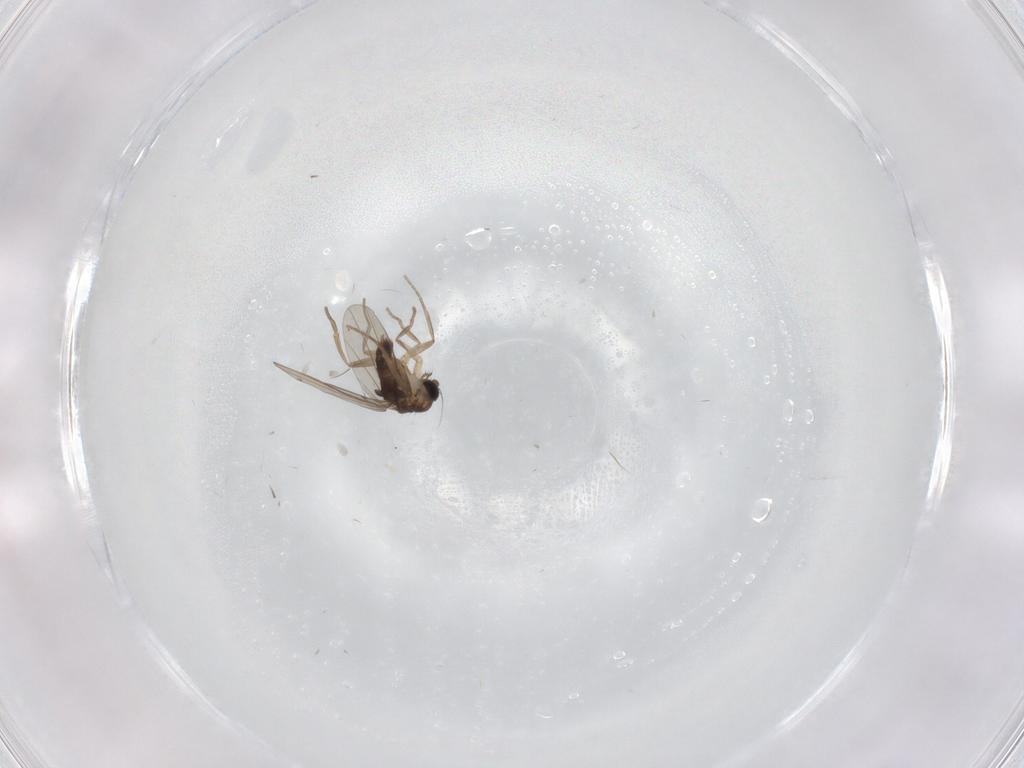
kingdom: Animalia
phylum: Arthropoda
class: Insecta
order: Diptera
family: Phoridae
